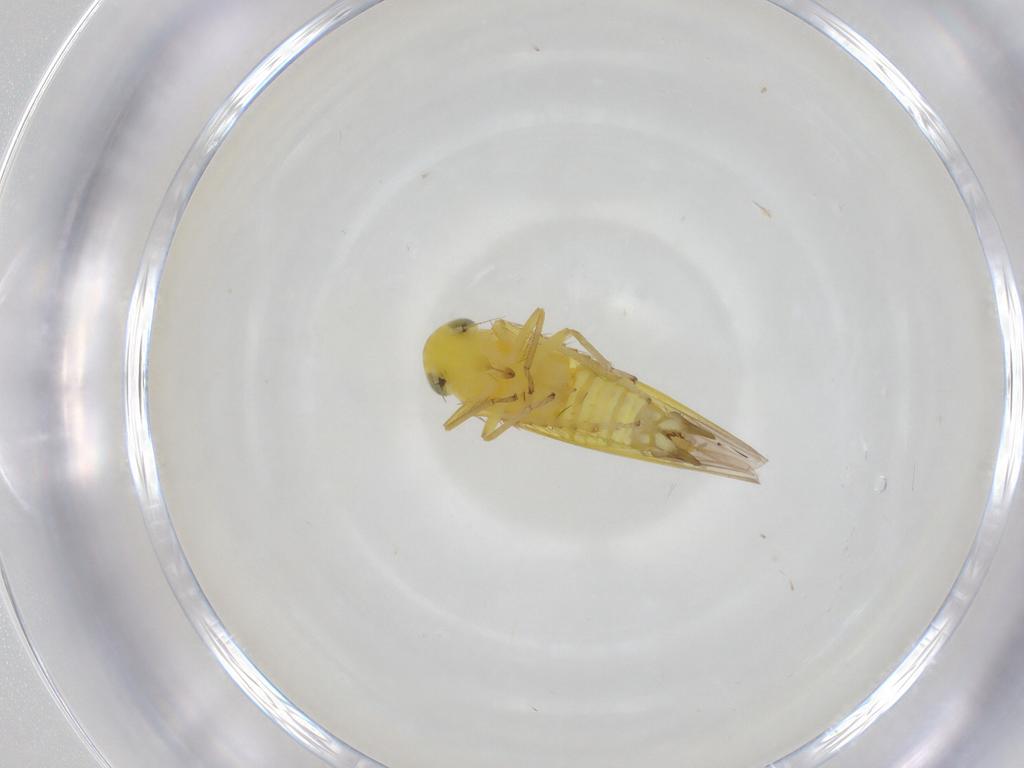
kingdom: Animalia
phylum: Arthropoda
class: Insecta
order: Hemiptera
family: Cicadellidae
